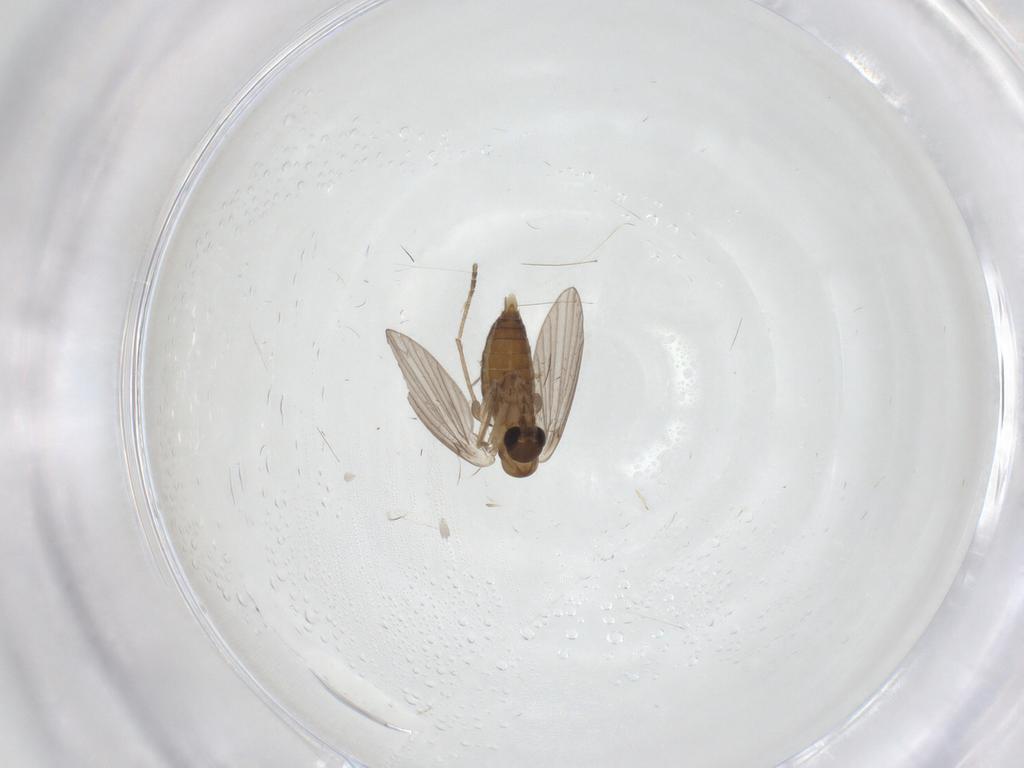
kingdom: Animalia
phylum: Arthropoda
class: Insecta
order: Diptera
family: Sciaridae
